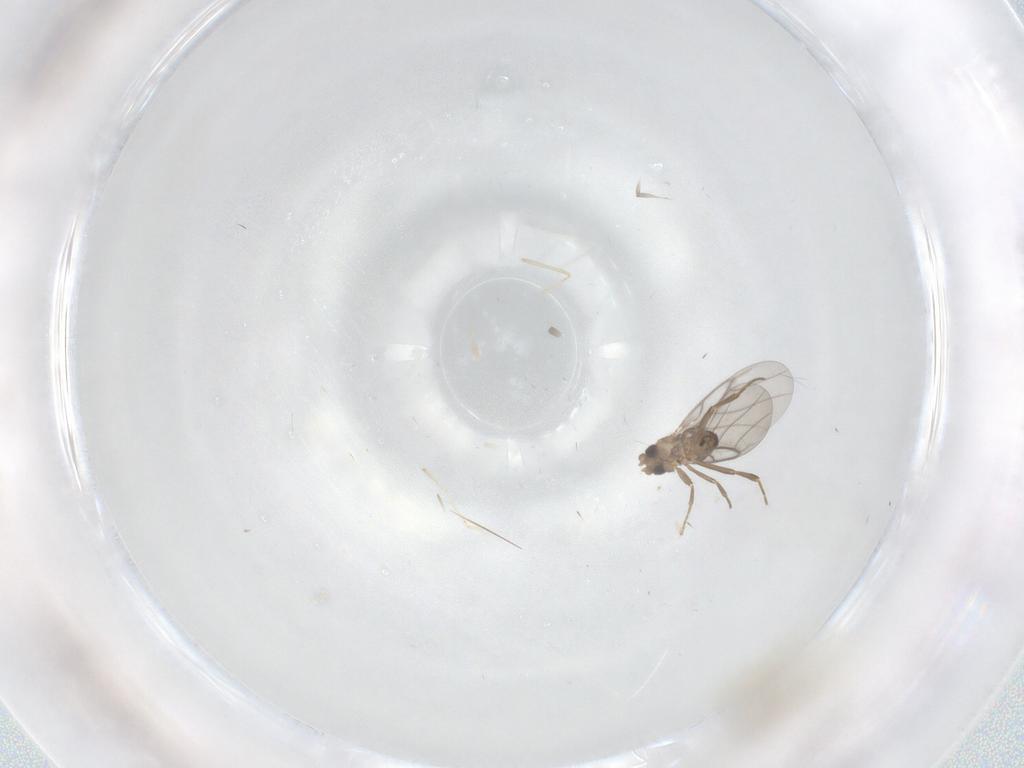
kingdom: Animalia
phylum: Arthropoda
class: Insecta
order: Diptera
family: Cecidomyiidae
